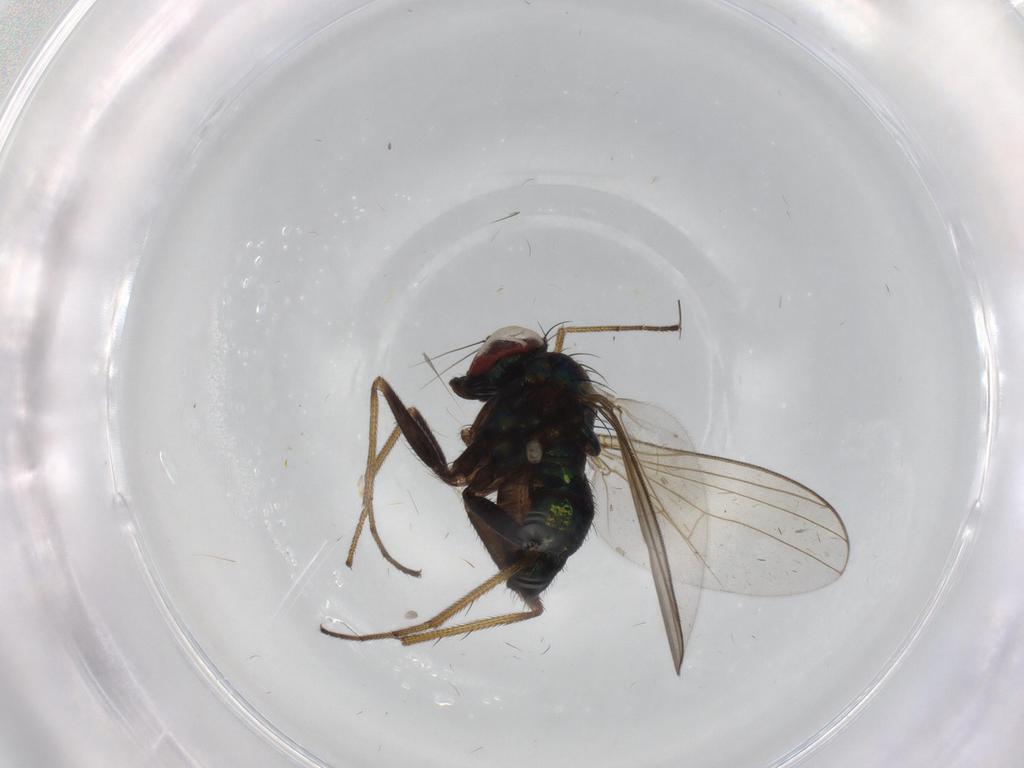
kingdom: Animalia
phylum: Arthropoda
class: Insecta
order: Diptera
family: Dolichopodidae
